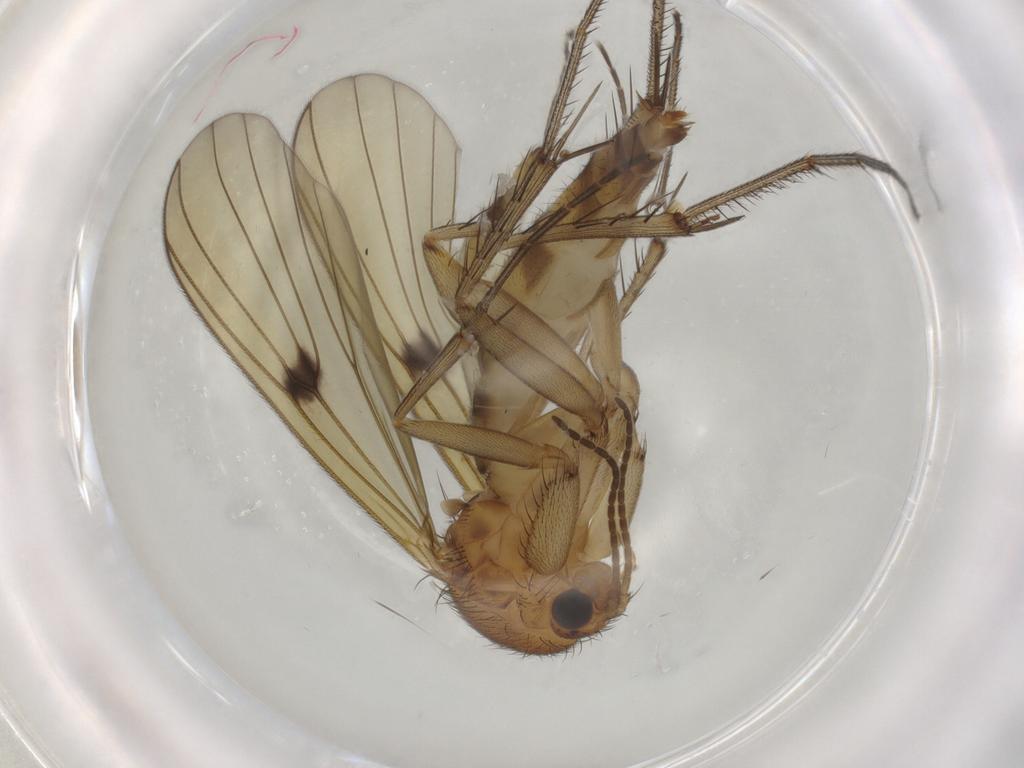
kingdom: Animalia
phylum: Arthropoda
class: Insecta
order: Diptera
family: Chironomidae
